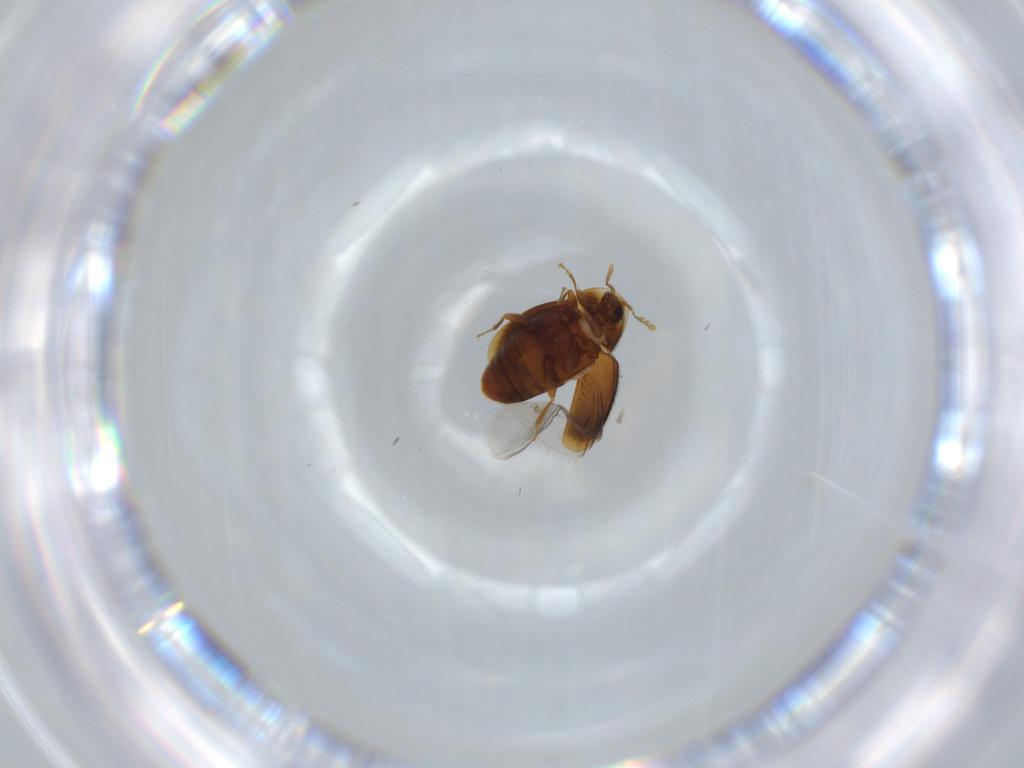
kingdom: Animalia
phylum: Arthropoda
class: Insecta
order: Coleoptera
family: Corylophidae
